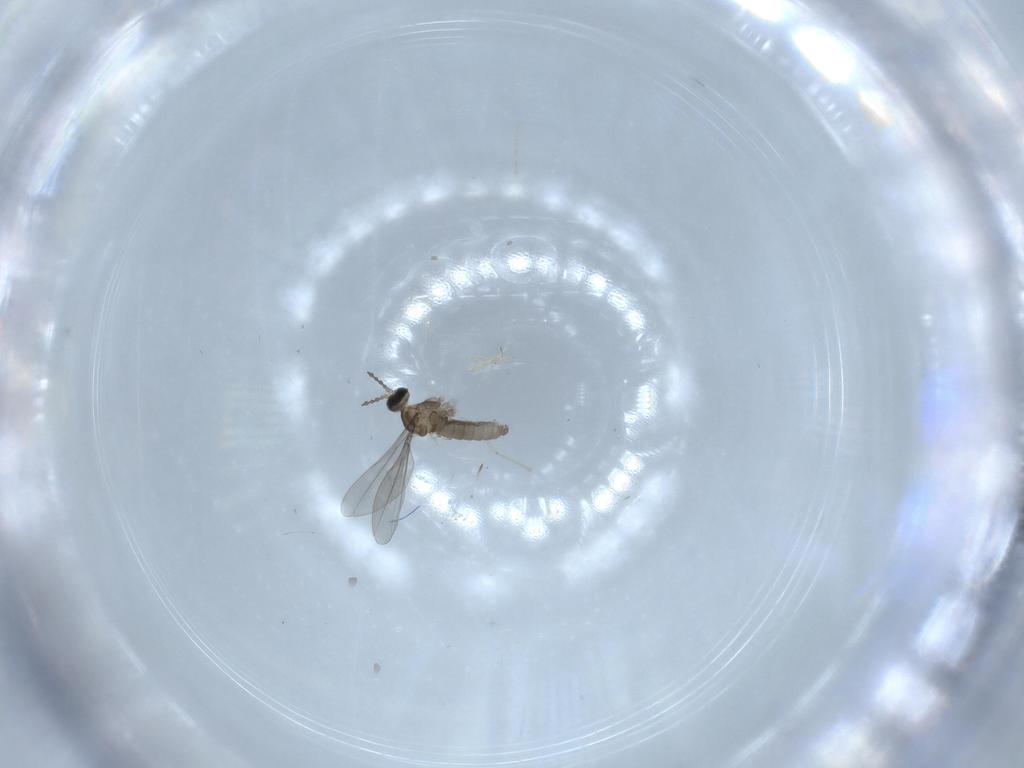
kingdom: Animalia
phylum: Arthropoda
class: Insecta
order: Diptera
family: Cecidomyiidae
